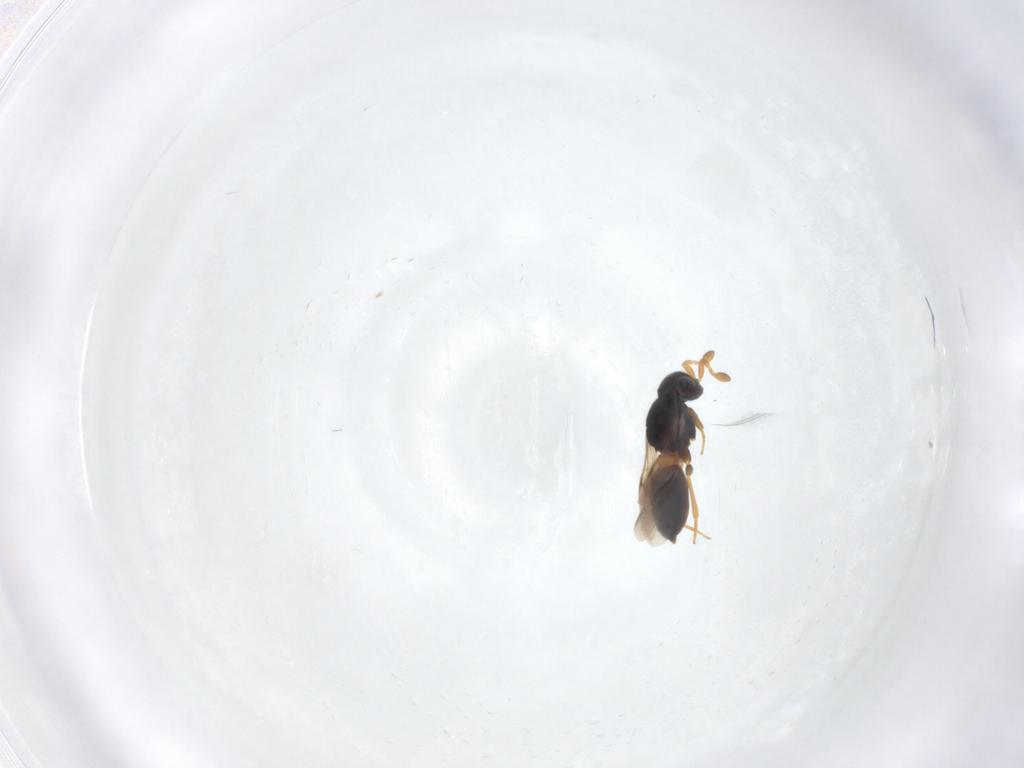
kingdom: Animalia
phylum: Arthropoda
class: Insecta
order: Hymenoptera
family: Scelionidae
